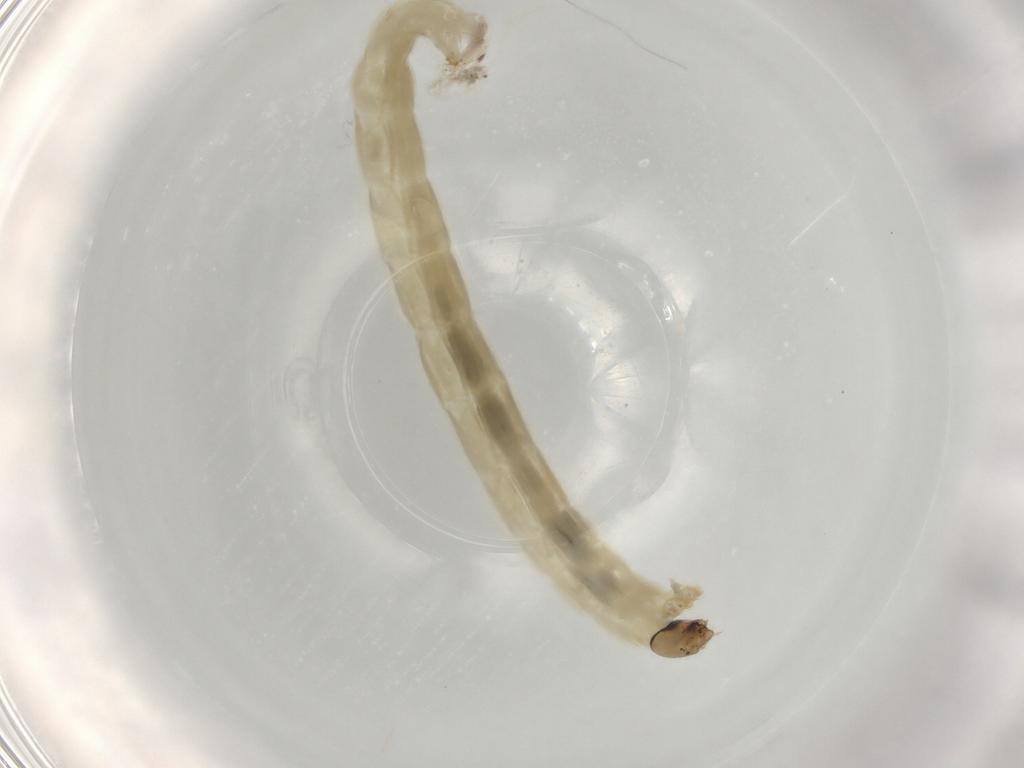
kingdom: Animalia
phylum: Arthropoda
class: Insecta
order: Diptera
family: Chironomidae
